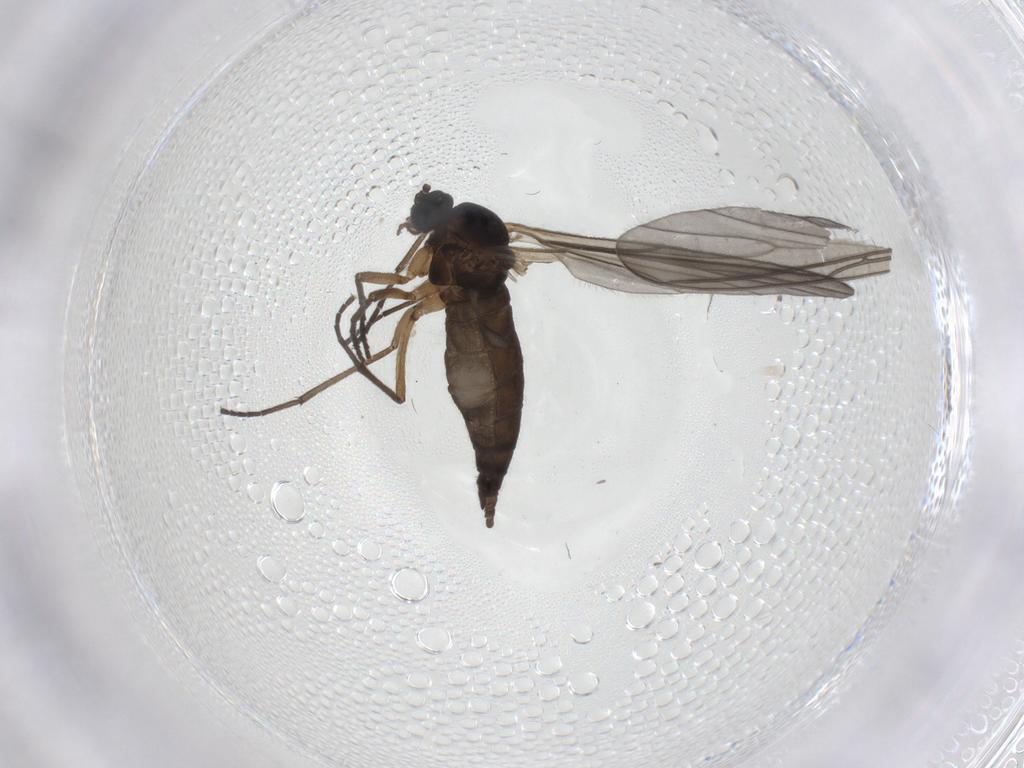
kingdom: Animalia
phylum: Arthropoda
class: Insecta
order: Diptera
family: Sciaridae
